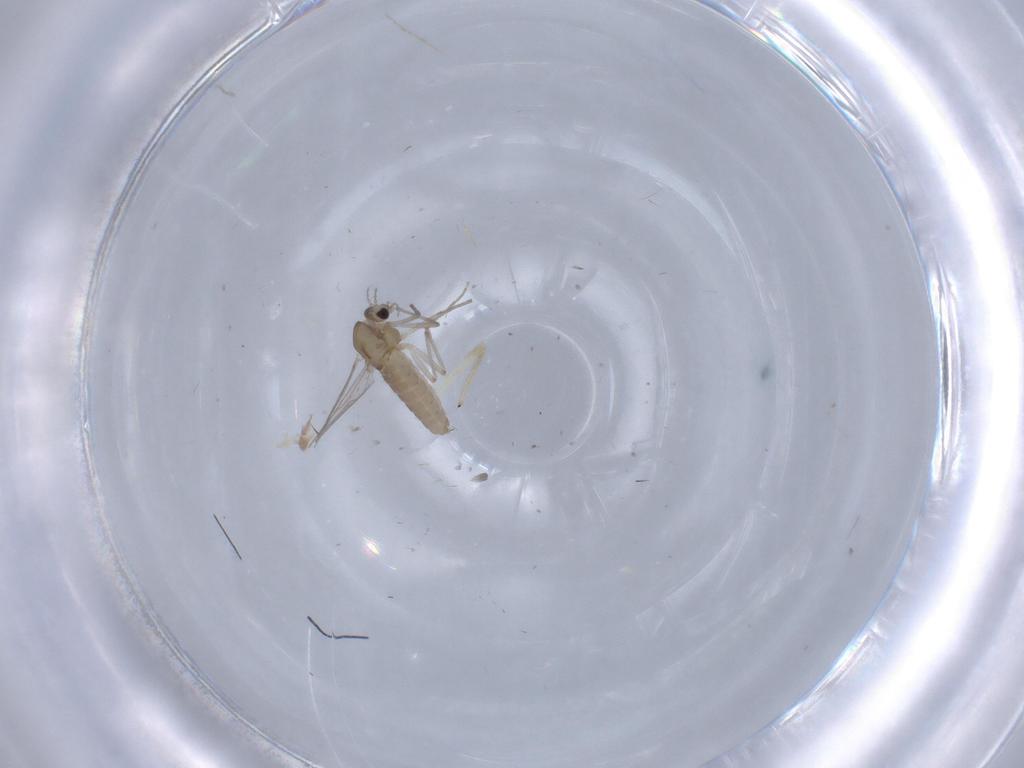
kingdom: Animalia
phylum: Arthropoda
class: Insecta
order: Diptera
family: Chironomidae
